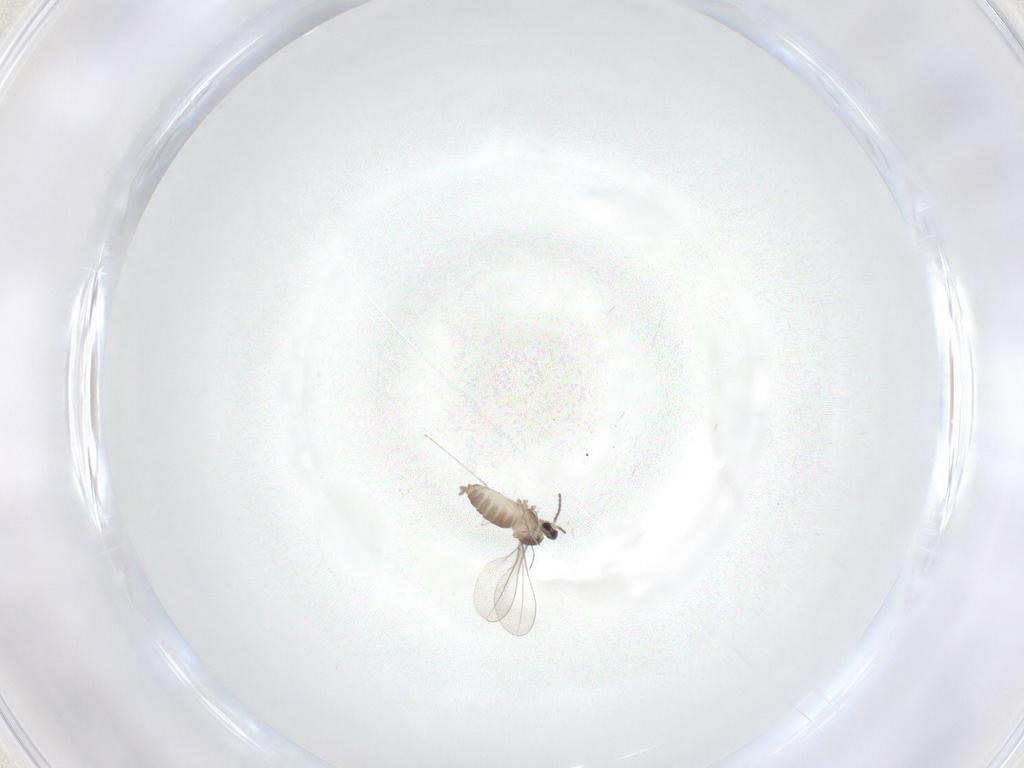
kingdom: Animalia
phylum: Arthropoda
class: Insecta
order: Diptera
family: Cecidomyiidae
